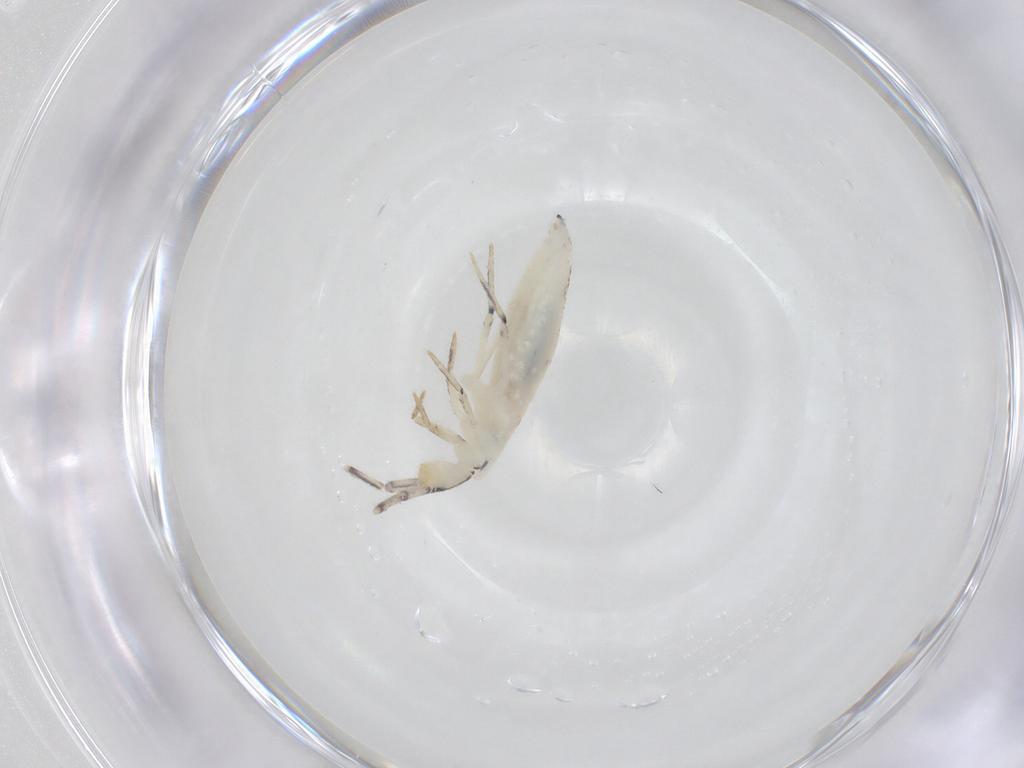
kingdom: Animalia
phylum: Arthropoda
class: Collembola
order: Entomobryomorpha
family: Entomobryidae
